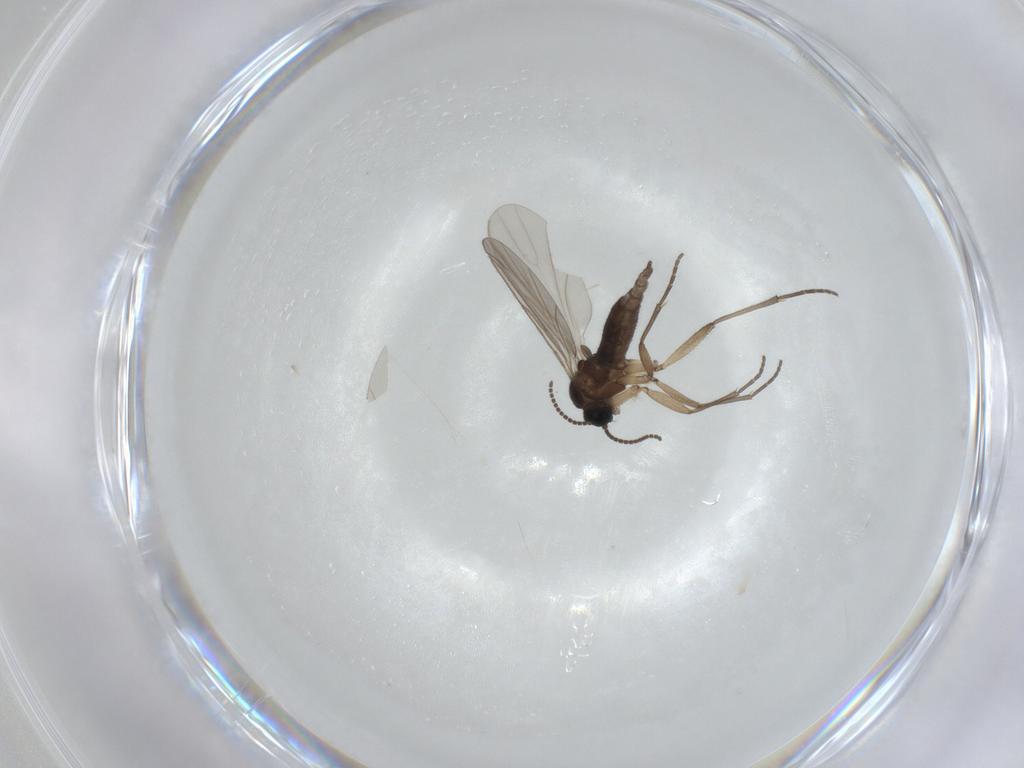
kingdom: Animalia
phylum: Arthropoda
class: Insecta
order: Diptera
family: Sciaridae
